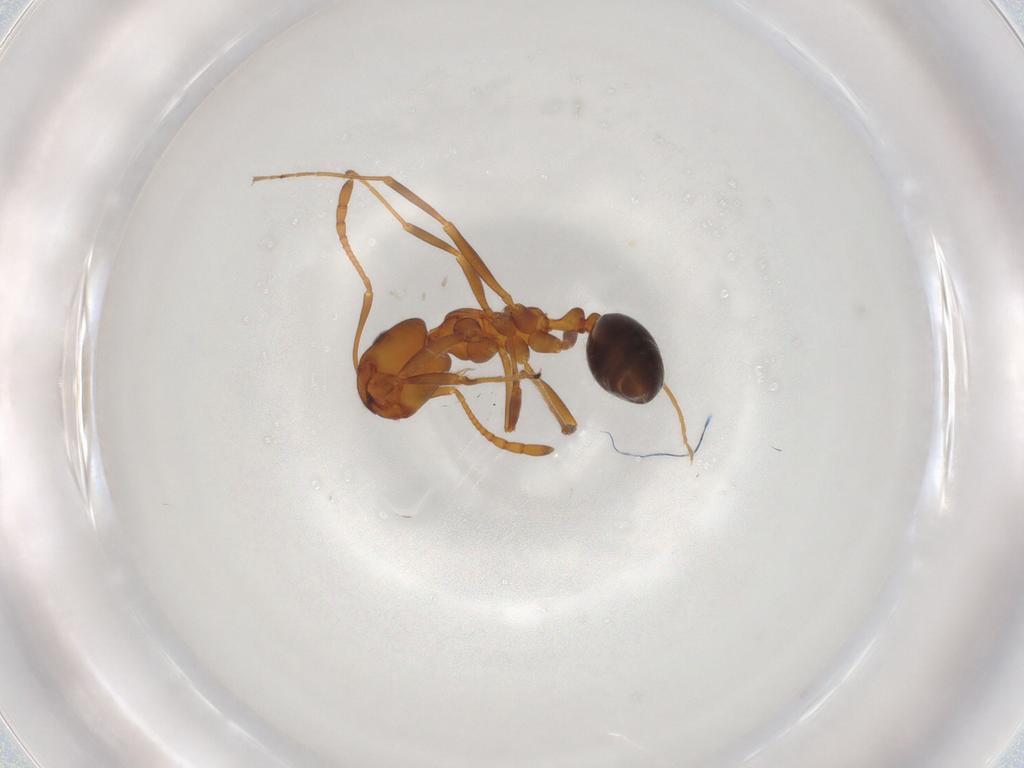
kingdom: Animalia
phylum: Arthropoda
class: Insecta
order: Hymenoptera
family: Formicidae
